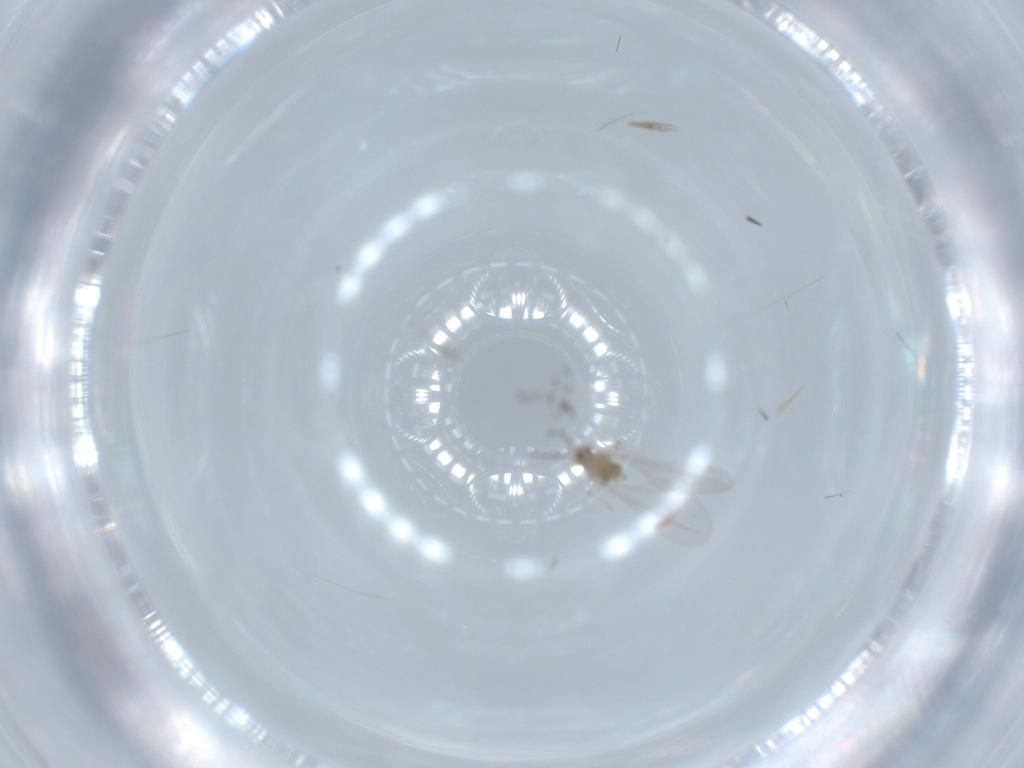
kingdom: Animalia
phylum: Arthropoda
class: Insecta
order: Diptera
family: Cecidomyiidae
